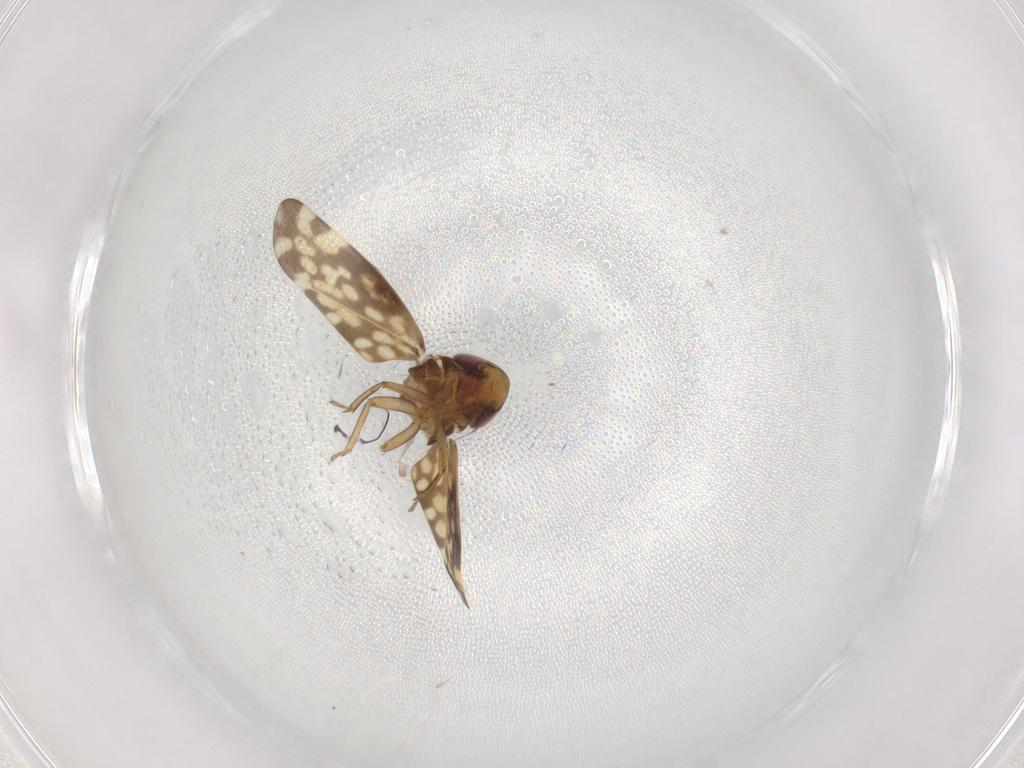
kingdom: Animalia
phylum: Arthropoda
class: Insecta
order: Hemiptera
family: Cicadellidae
